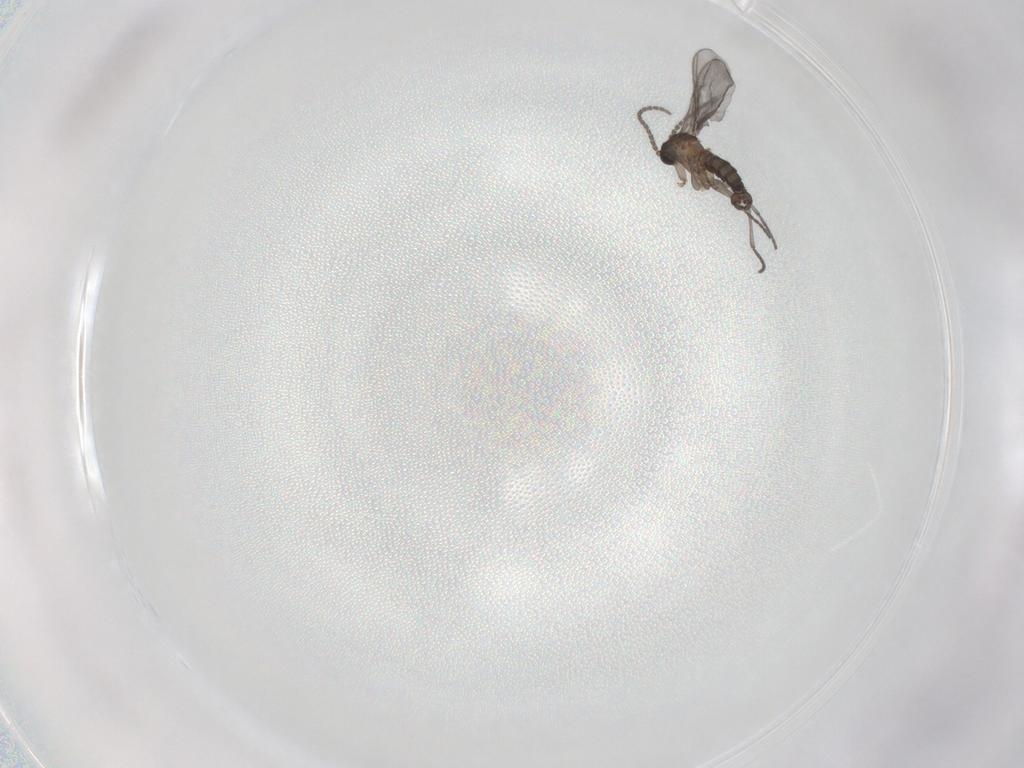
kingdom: Animalia
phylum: Arthropoda
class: Insecta
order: Diptera
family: Sciaridae
